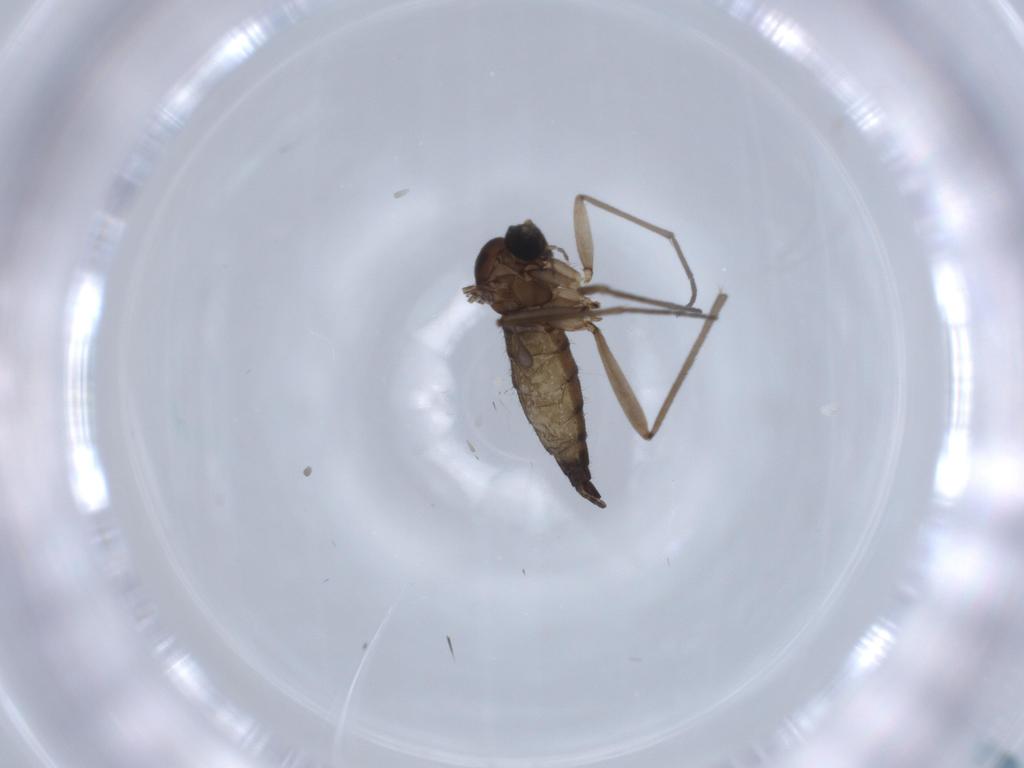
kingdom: Animalia
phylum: Arthropoda
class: Insecta
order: Diptera
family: Sciaridae
